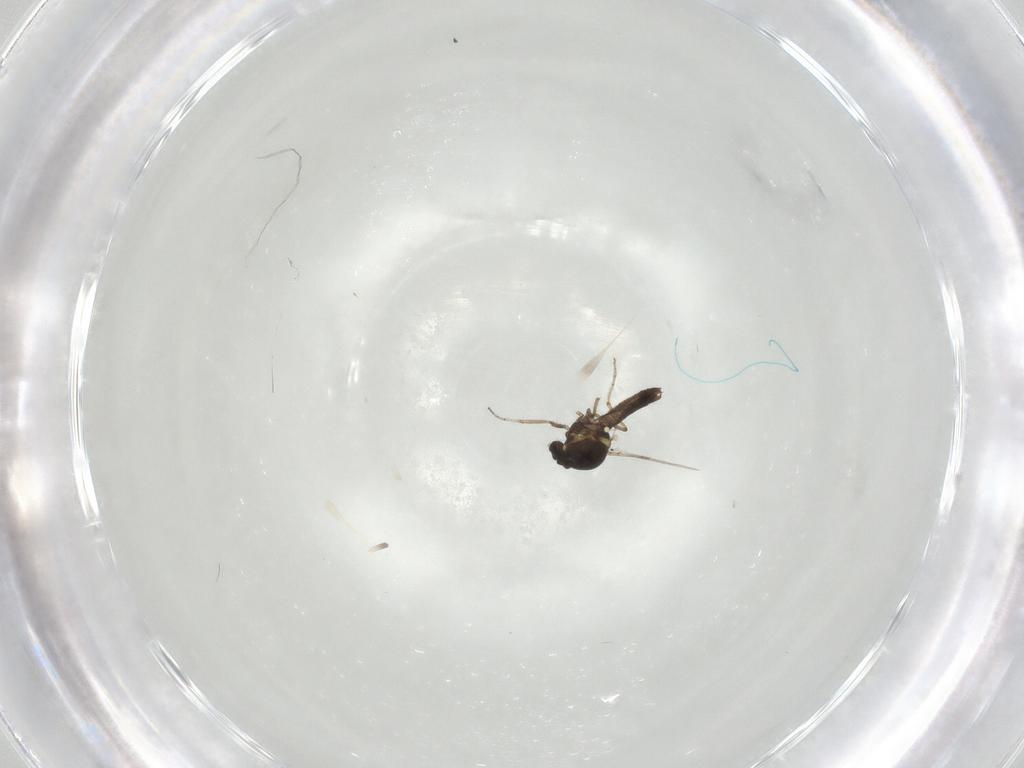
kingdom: Animalia
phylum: Arthropoda
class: Insecta
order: Diptera
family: Ceratopogonidae
